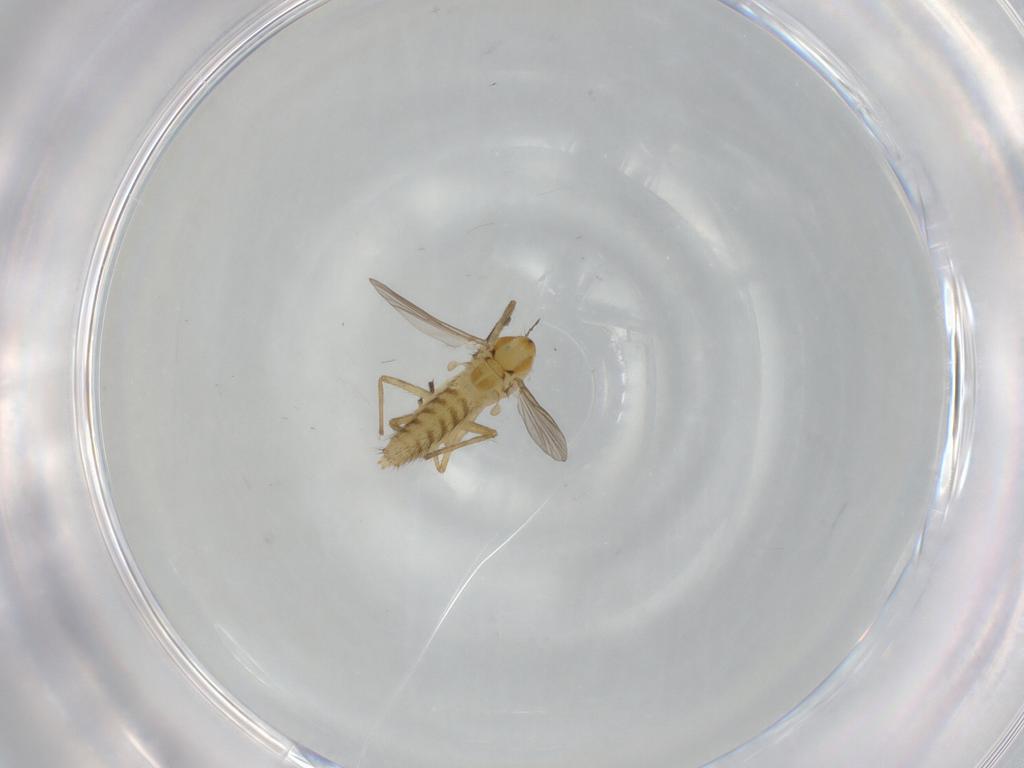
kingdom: Animalia
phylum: Arthropoda
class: Insecta
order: Diptera
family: Chironomidae
